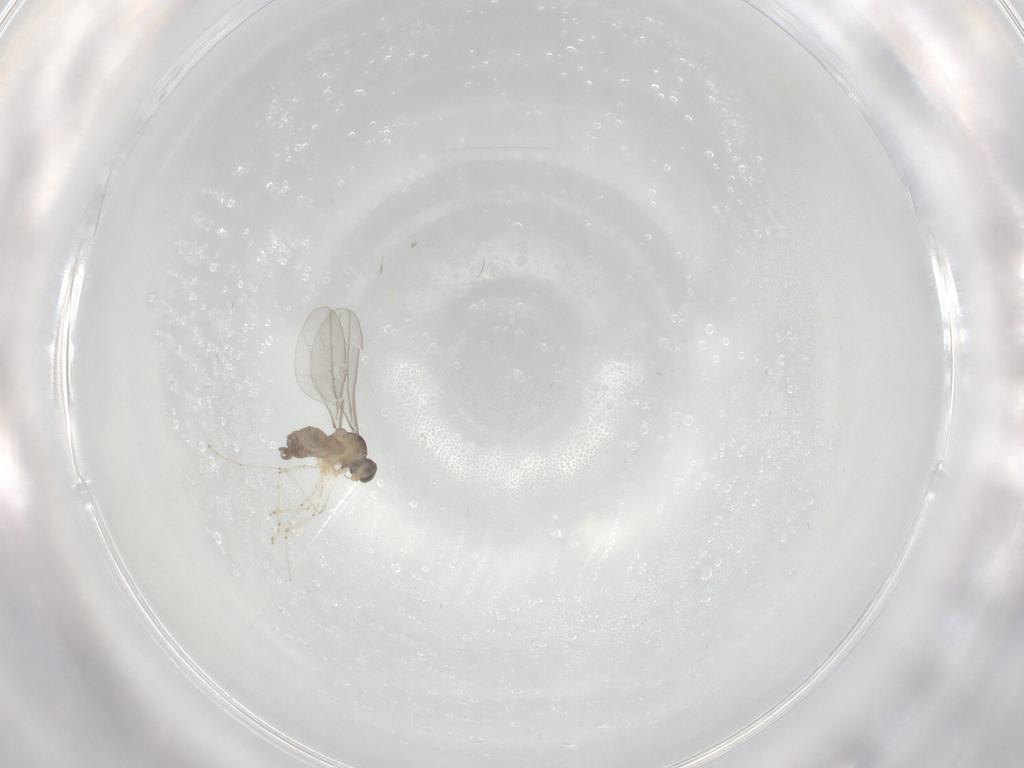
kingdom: Animalia
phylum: Arthropoda
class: Insecta
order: Diptera
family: Cecidomyiidae
